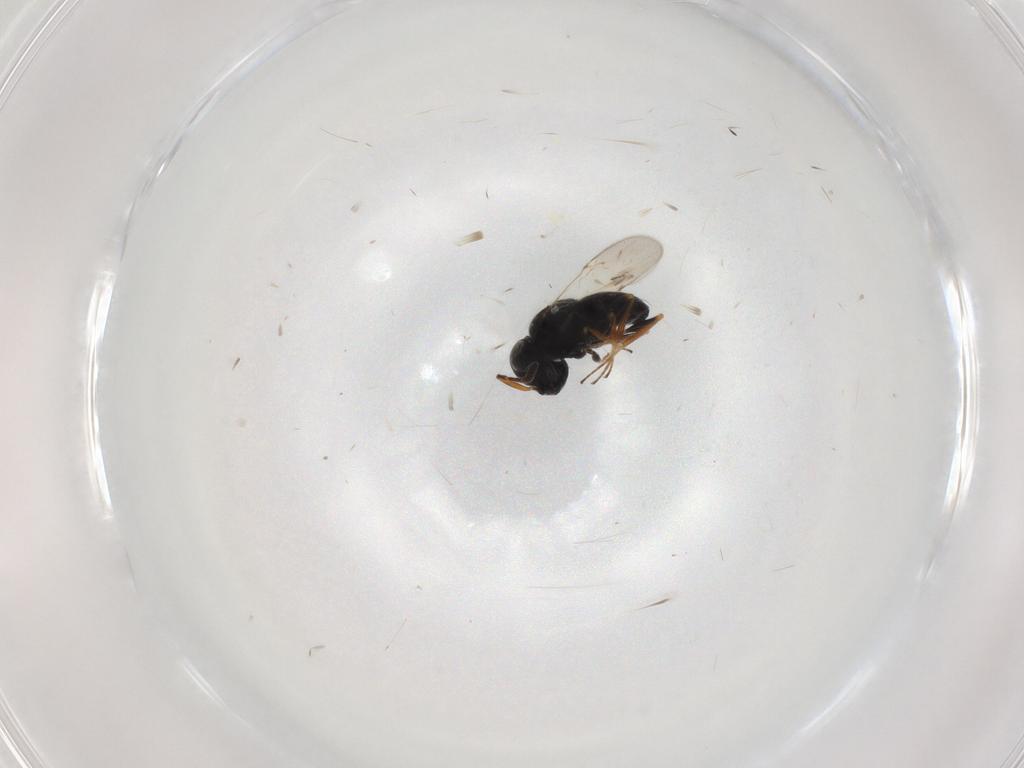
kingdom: Animalia
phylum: Arthropoda
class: Insecta
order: Coleoptera
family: Curculionidae
